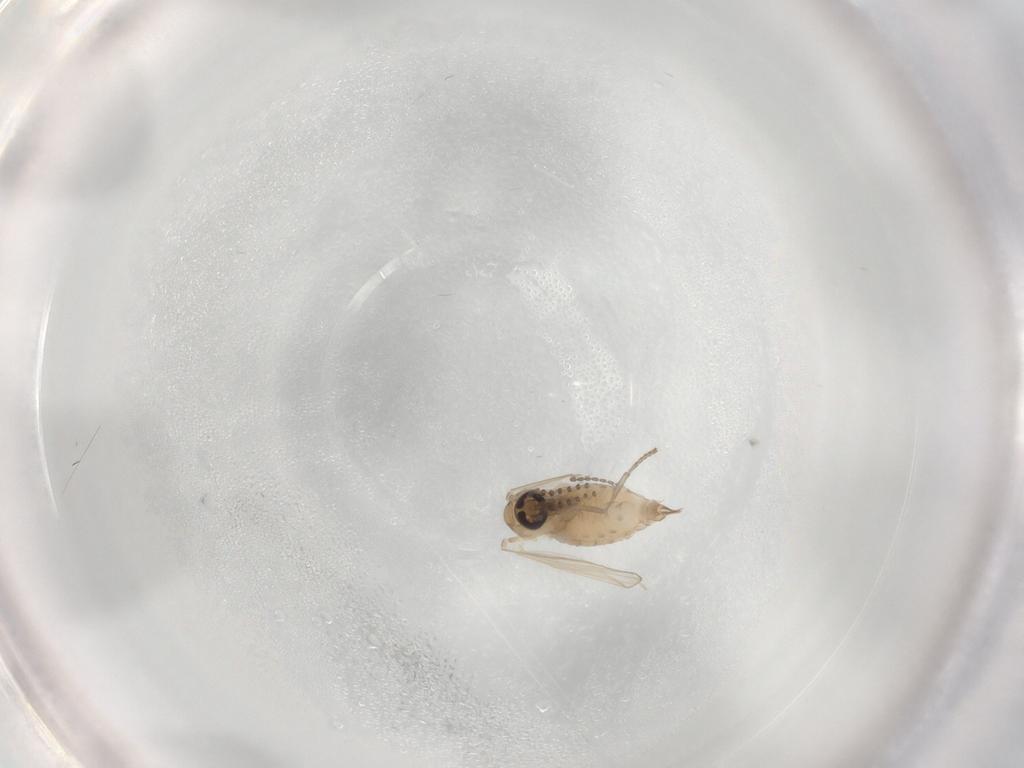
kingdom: Animalia
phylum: Arthropoda
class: Insecta
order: Diptera
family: Psychodidae
